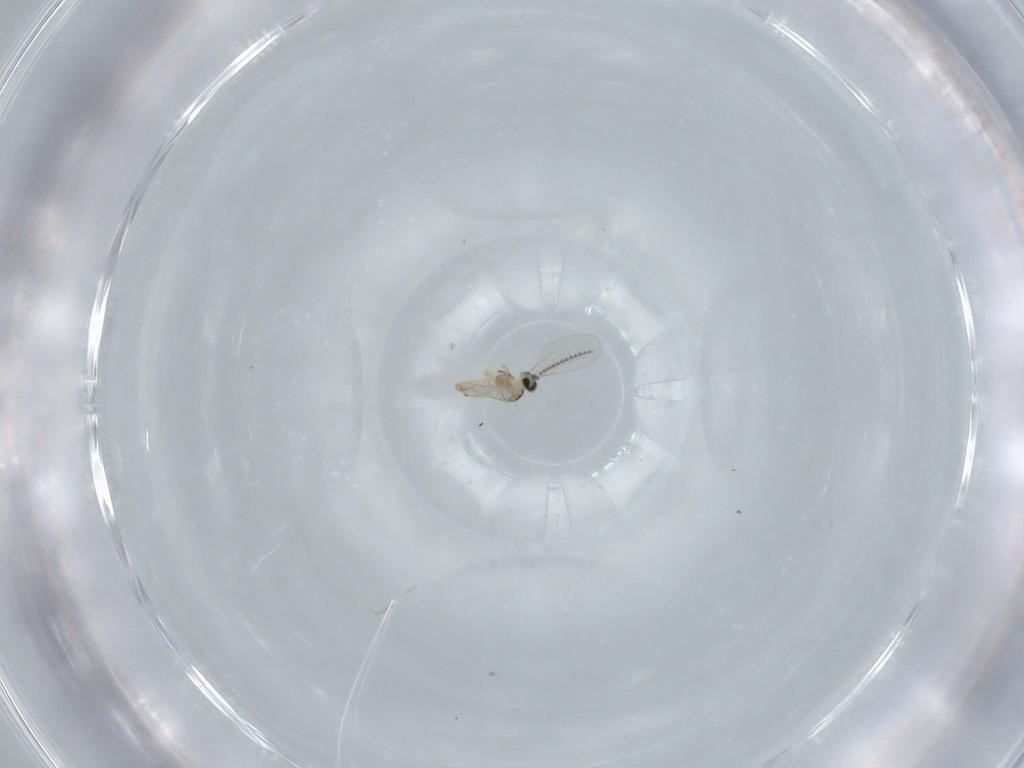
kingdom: Animalia
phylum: Arthropoda
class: Insecta
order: Diptera
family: Cecidomyiidae
